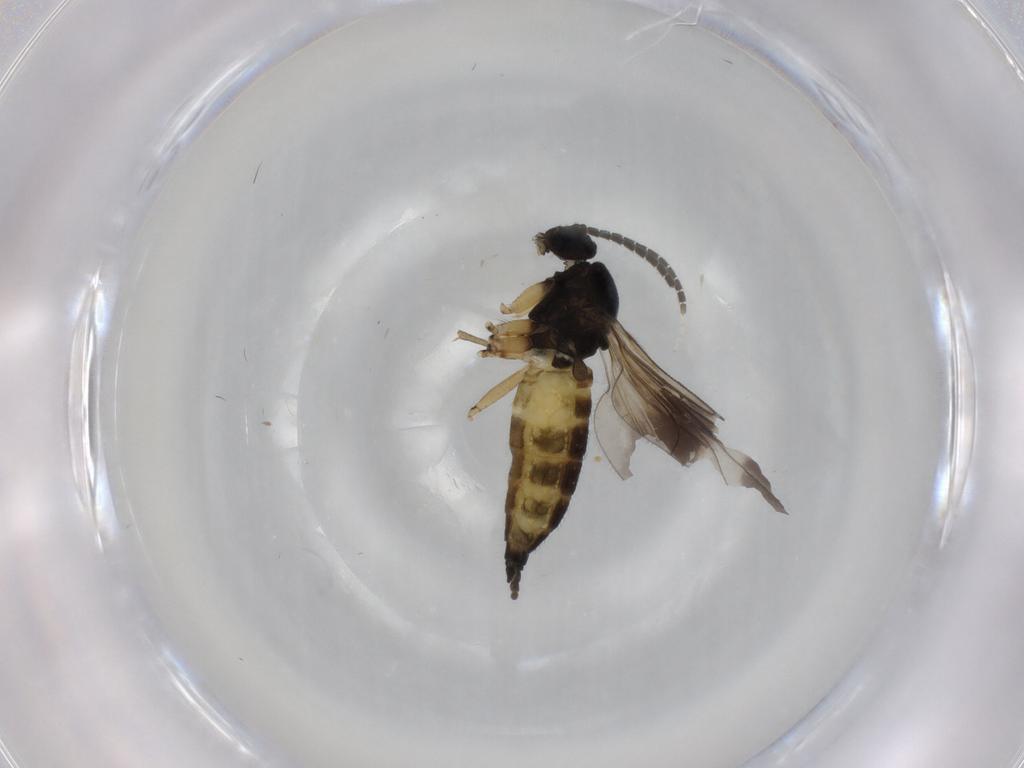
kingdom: Animalia
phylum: Arthropoda
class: Insecta
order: Diptera
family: Sciaridae
